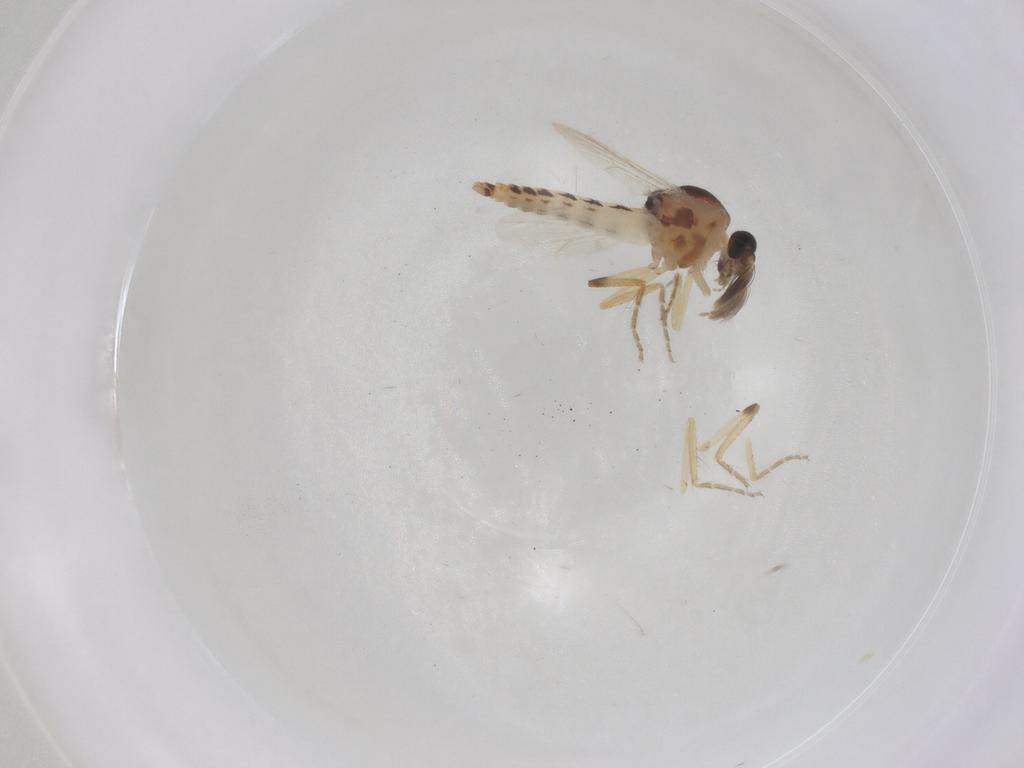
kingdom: Animalia
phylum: Arthropoda
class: Insecta
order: Diptera
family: Cecidomyiidae
